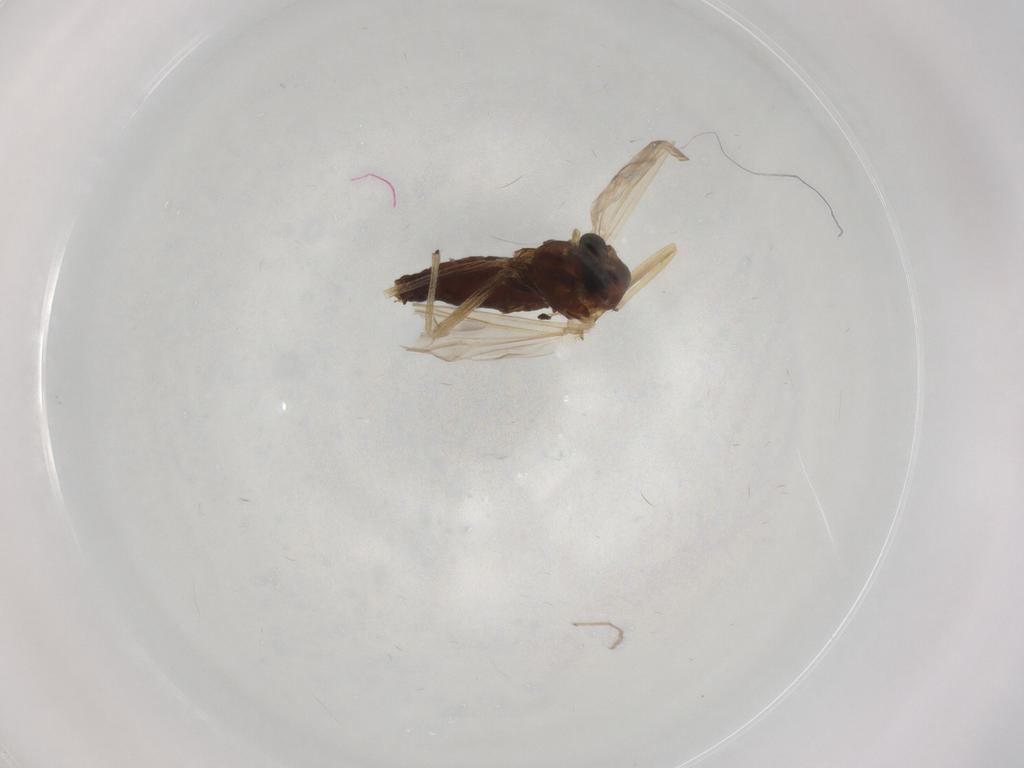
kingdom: Animalia
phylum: Arthropoda
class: Insecta
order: Diptera
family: Chironomidae
